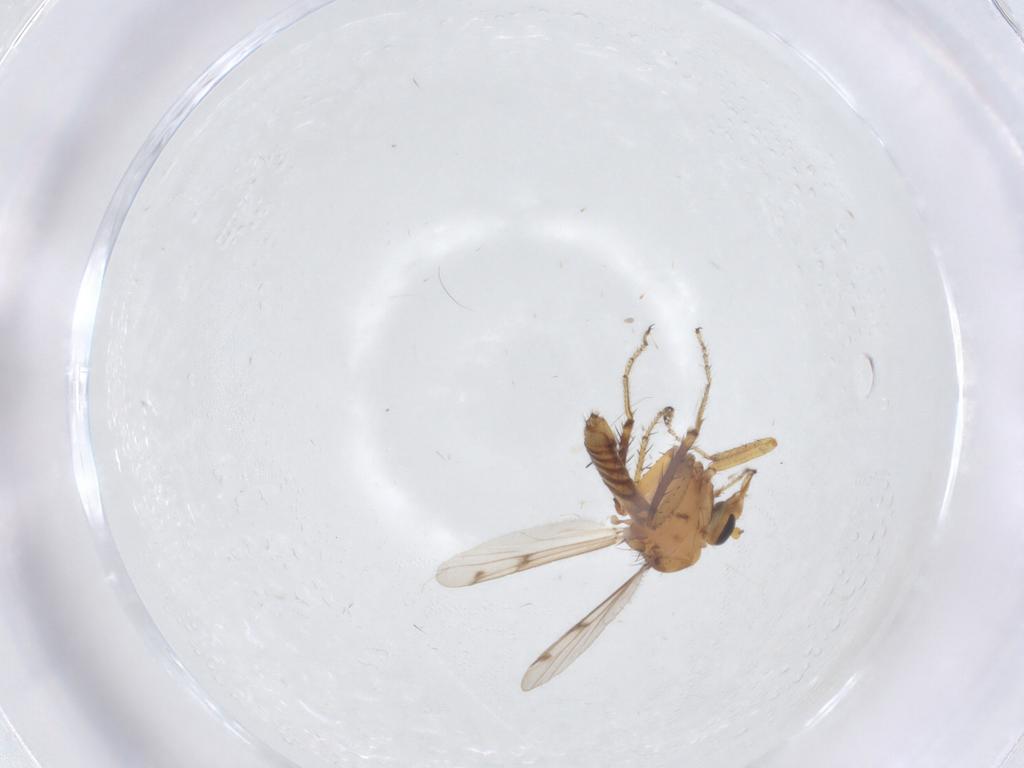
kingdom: Animalia
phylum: Arthropoda
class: Insecta
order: Diptera
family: Ceratopogonidae
